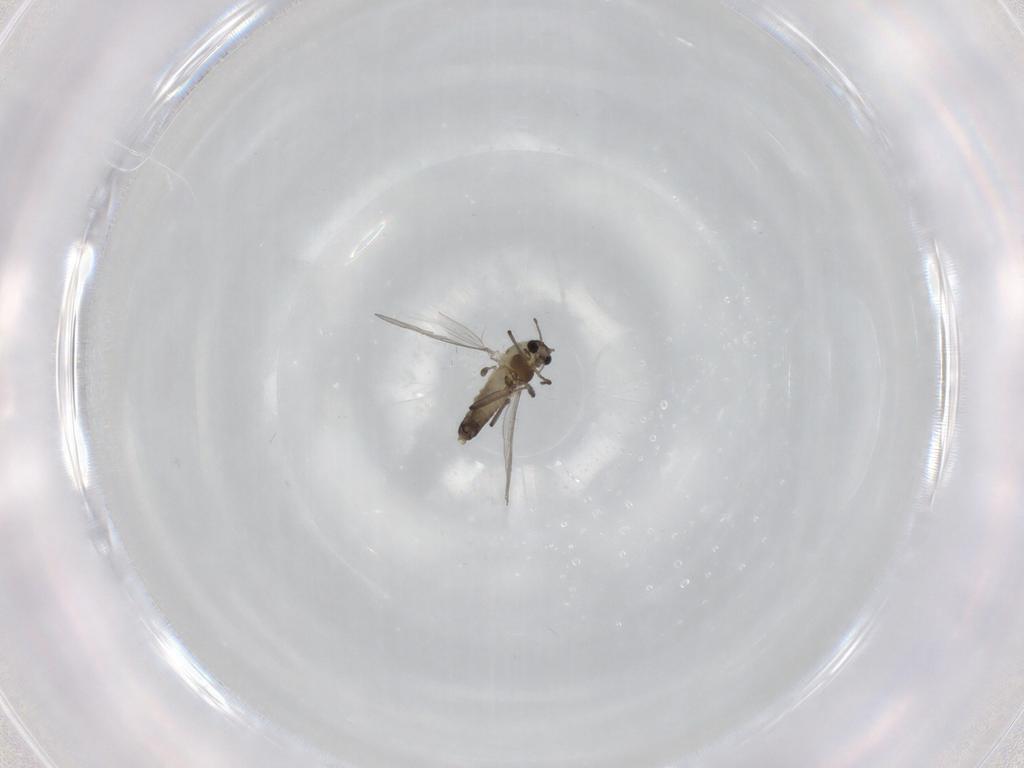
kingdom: Animalia
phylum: Arthropoda
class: Insecta
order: Diptera
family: Chironomidae
